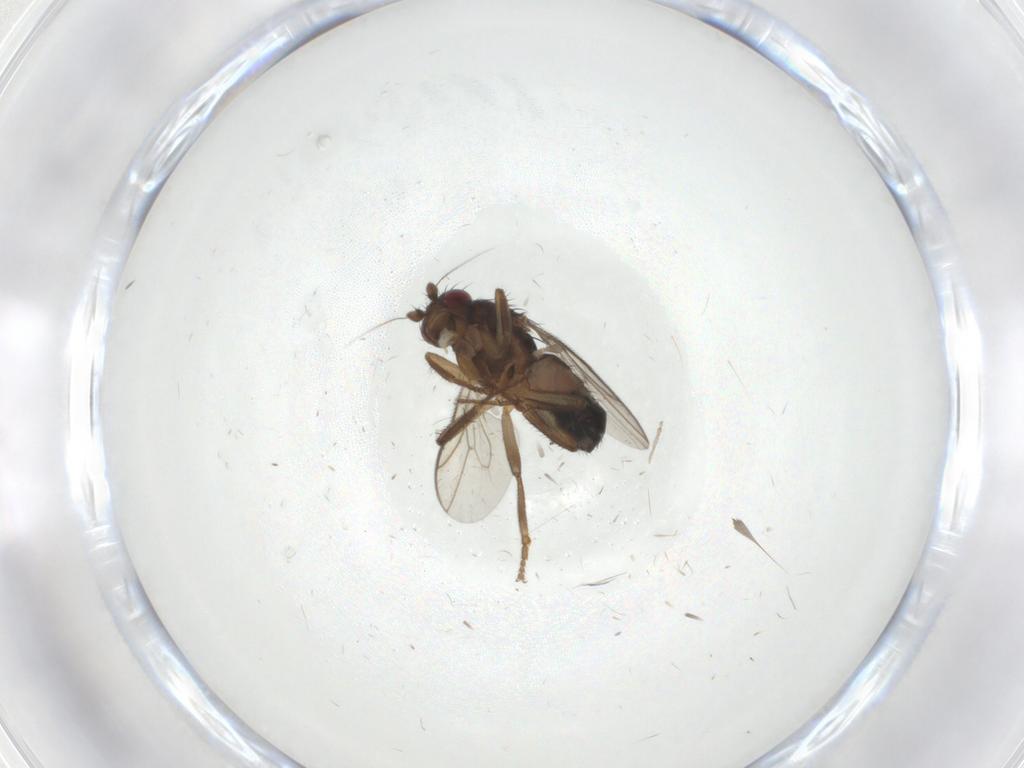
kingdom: Animalia
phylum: Arthropoda
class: Insecta
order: Diptera
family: Sphaeroceridae
